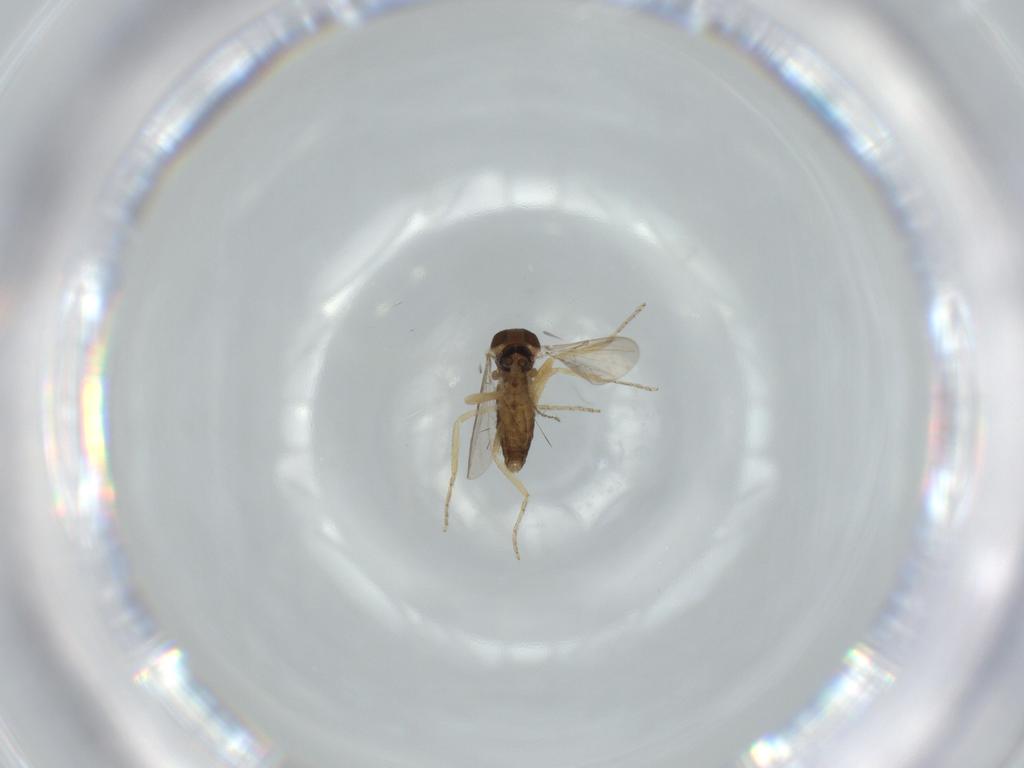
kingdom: Animalia
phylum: Arthropoda
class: Insecta
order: Diptera
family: Ceratopogonidae
